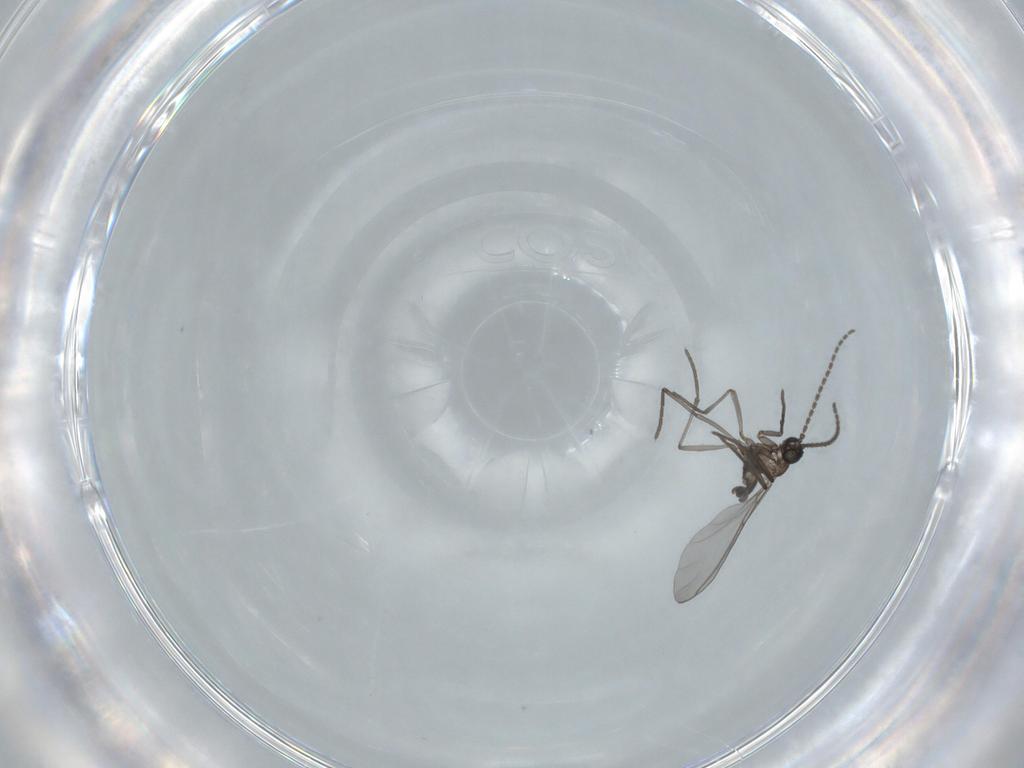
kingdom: Animalia
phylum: Arthropoda
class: Insecta
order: Diptera
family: Sciaridae
